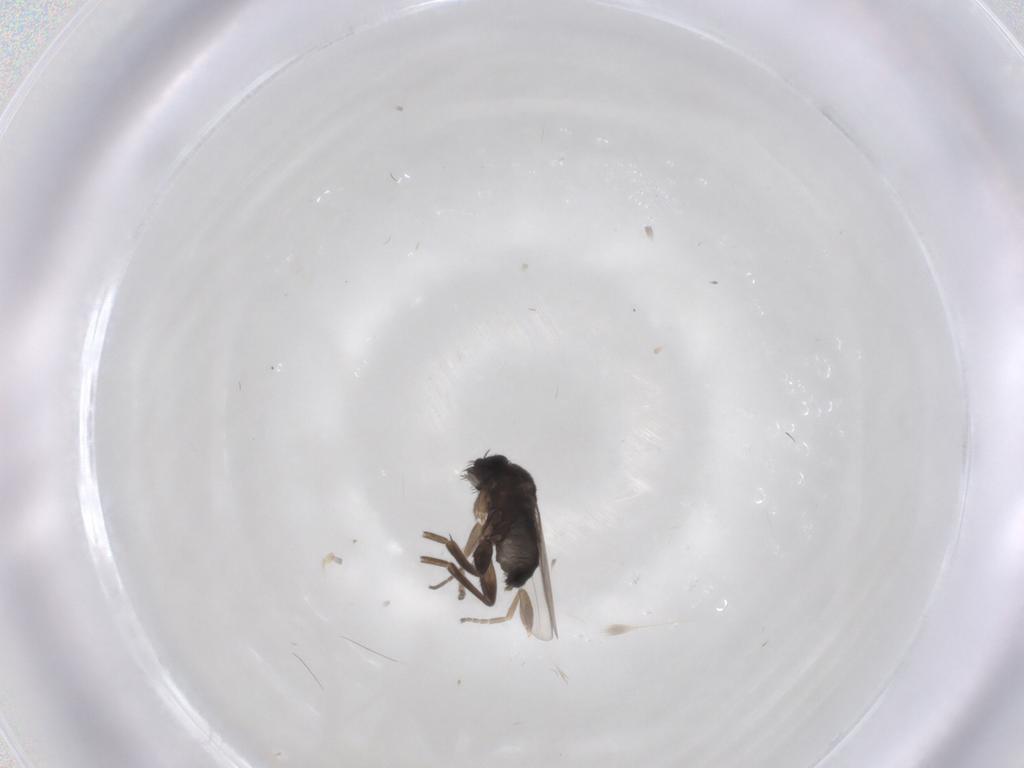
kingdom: Animalia
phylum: Arthropoda
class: Insecta
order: Diptera
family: Dolichopodidae
